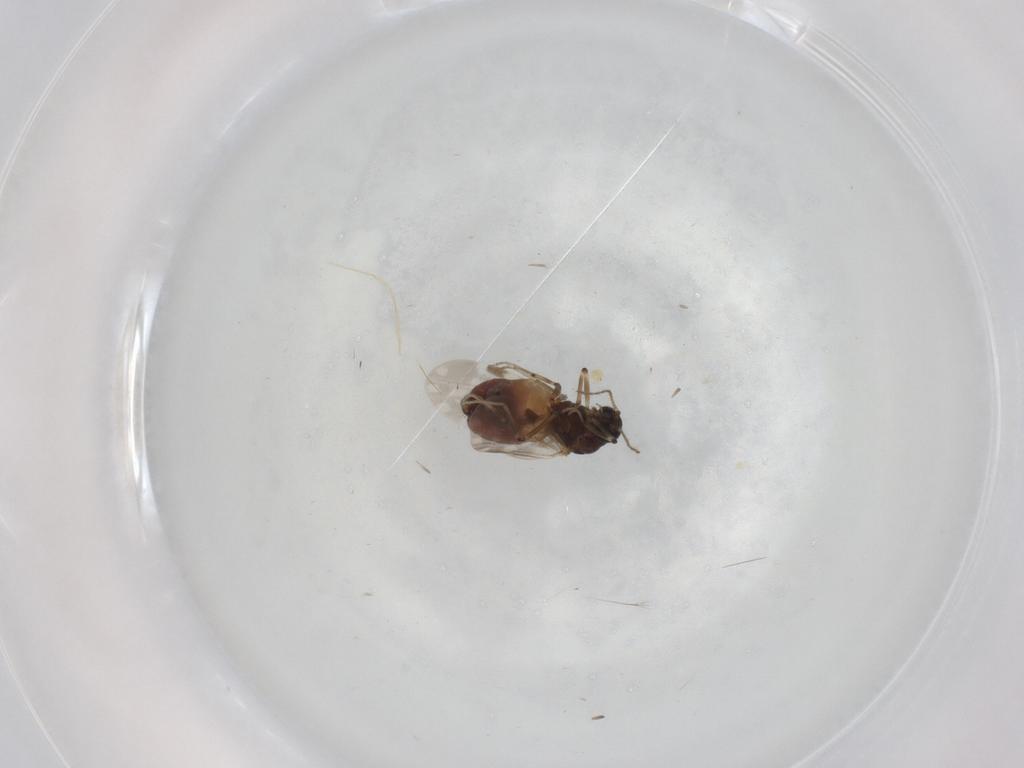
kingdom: Animalia
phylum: Arthropoda
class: Insecta
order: Diptera
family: Ceratopogonidae
